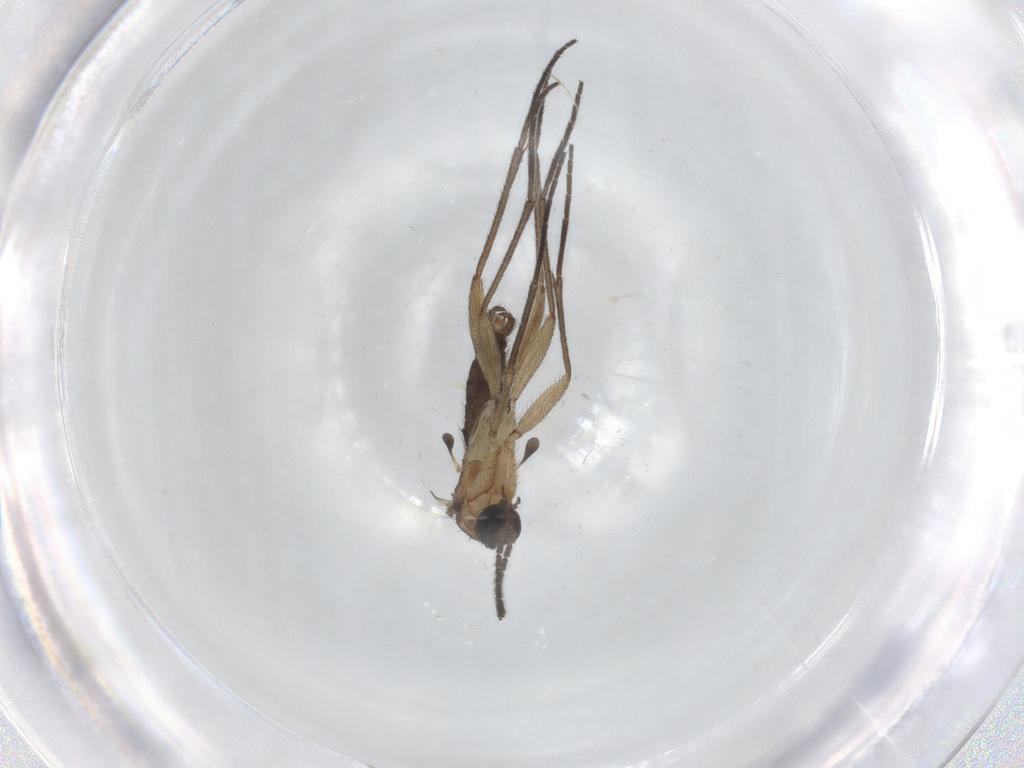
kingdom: Animalia
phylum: Arthropoda
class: Insecta
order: Diptera
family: Sciaridae
